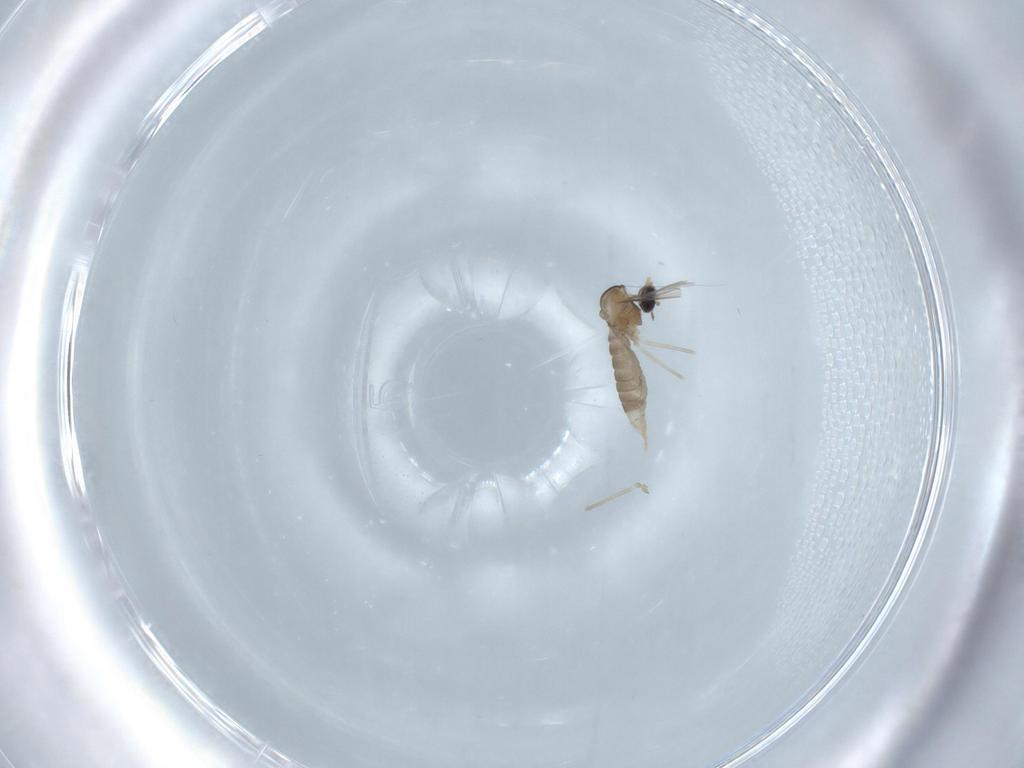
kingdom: Animalia
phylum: Arthropoda
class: Insecta
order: Diptera
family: Cecidomyiidae
